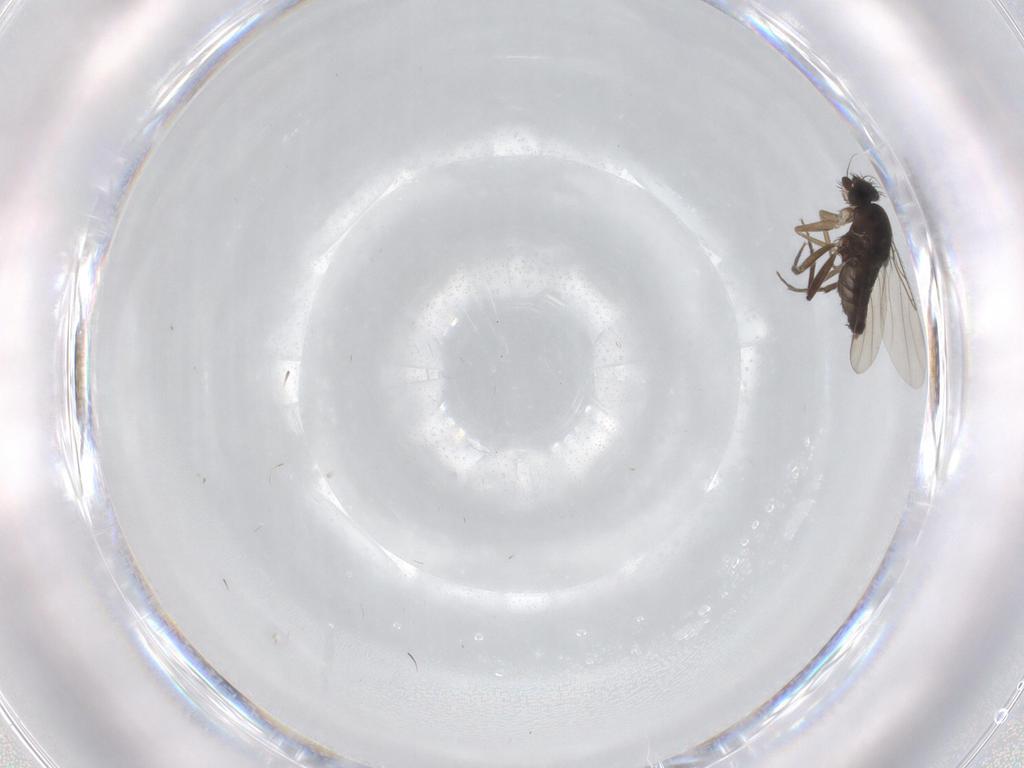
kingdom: Animalia
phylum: Arthropoda
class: Insecta
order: Diptera
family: Phoridae
